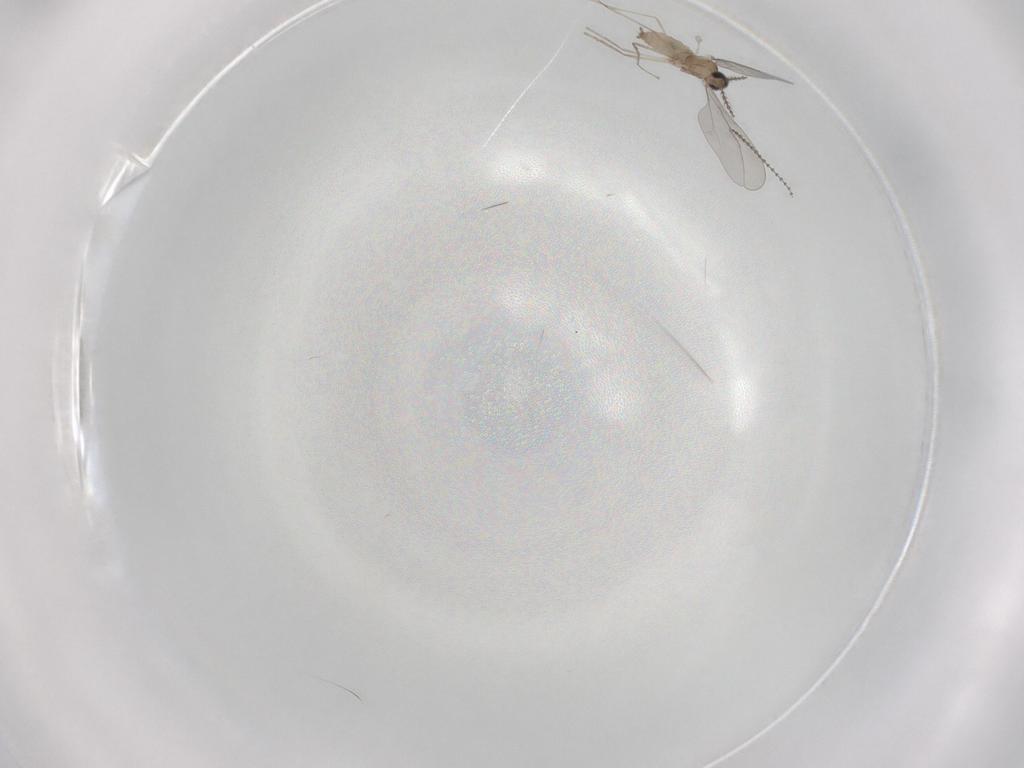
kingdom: Animalia
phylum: Arthropoda
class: Insecta
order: Diptera
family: Cecidomyiidae
